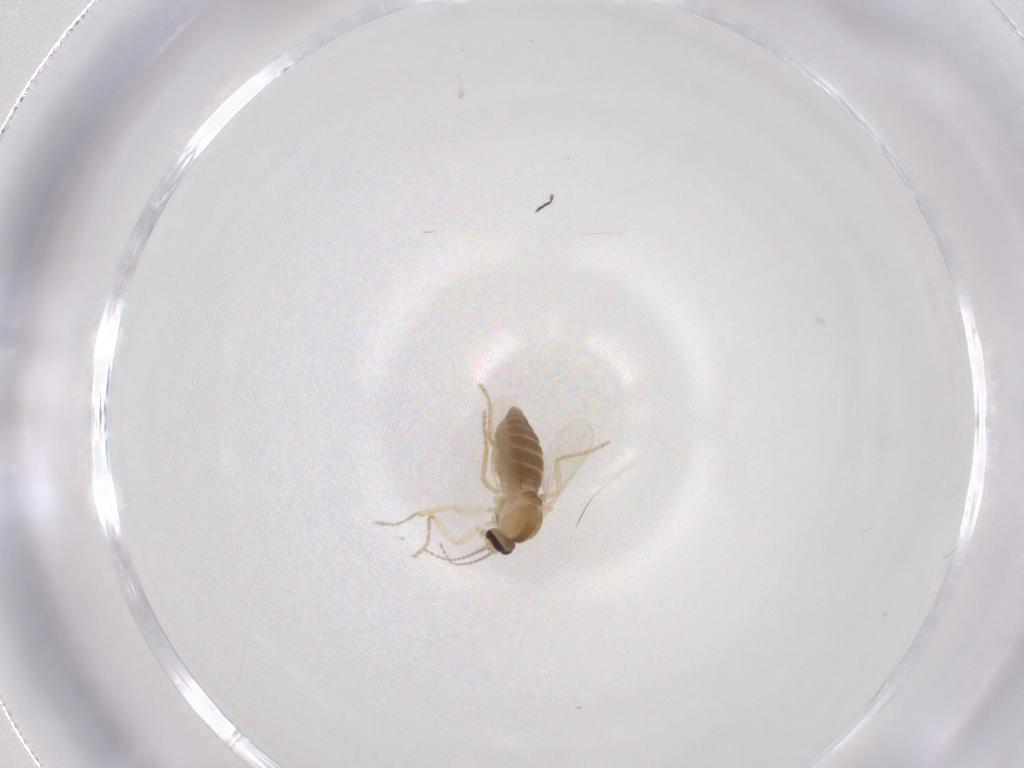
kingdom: Animalia
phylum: Arthropoda
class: Insecta
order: Diptera
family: Ceratopogonidae
